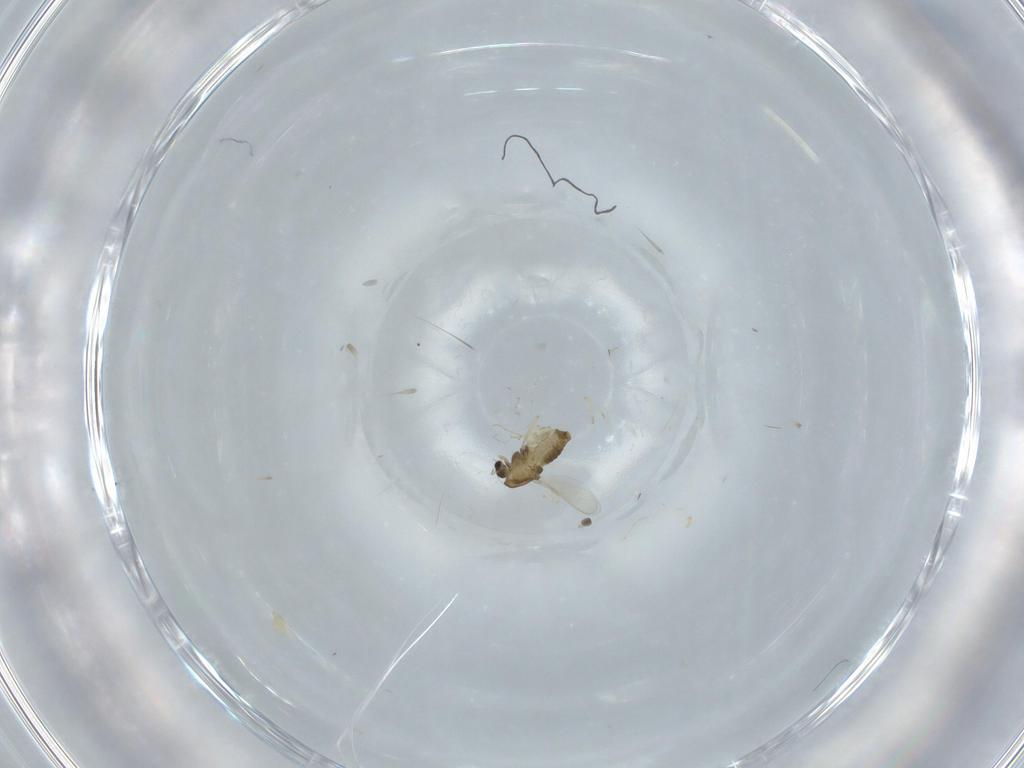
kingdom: Animalia
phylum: Arthropoda
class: Insecta
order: Diptera
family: Chironomidae
